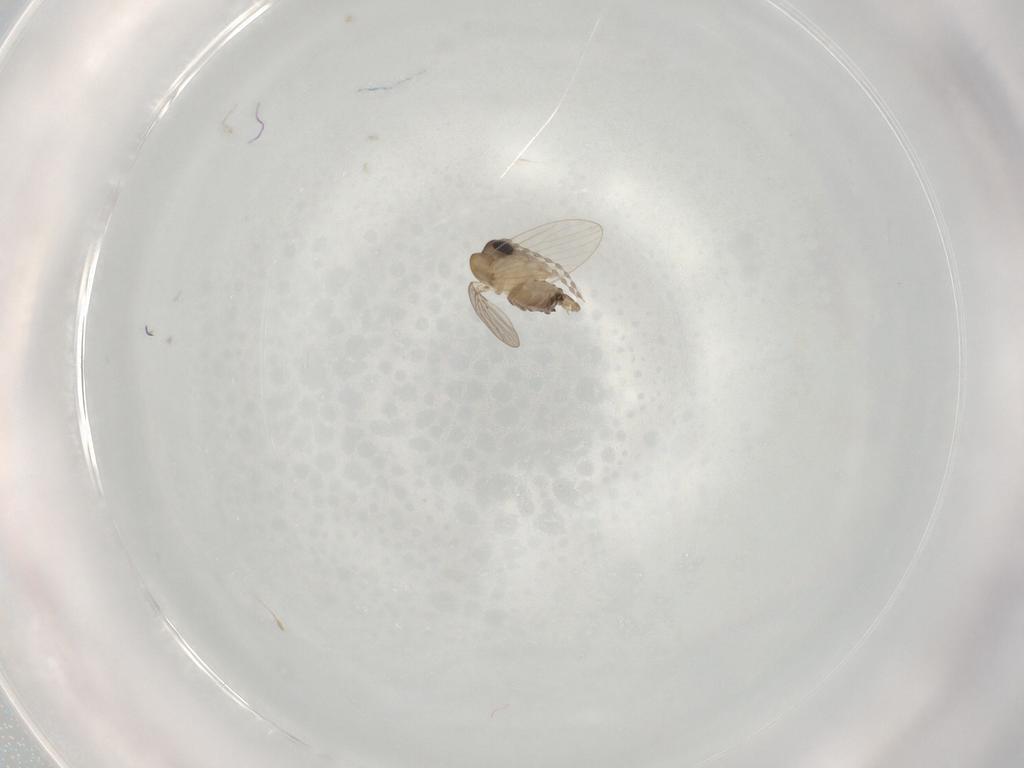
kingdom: Animalia
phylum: Arthropoda
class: Insecta
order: Diptera
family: Psychodidae
